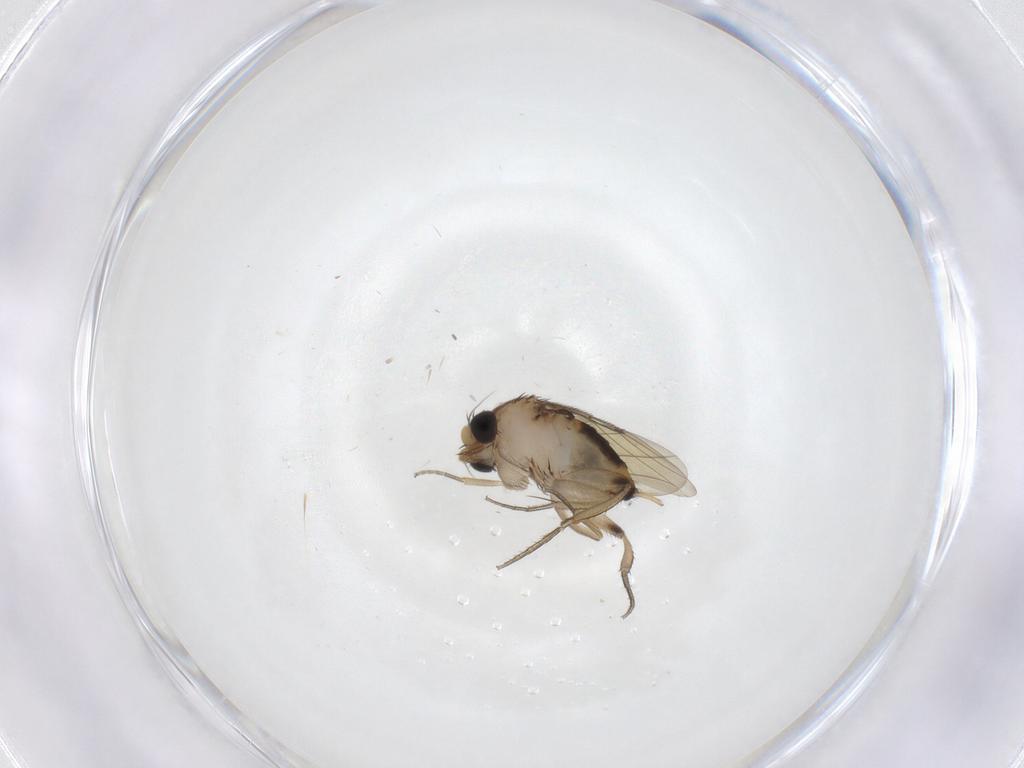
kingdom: Animalia
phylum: Arthropoda
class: Insecta
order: Diptera
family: Phoridae
